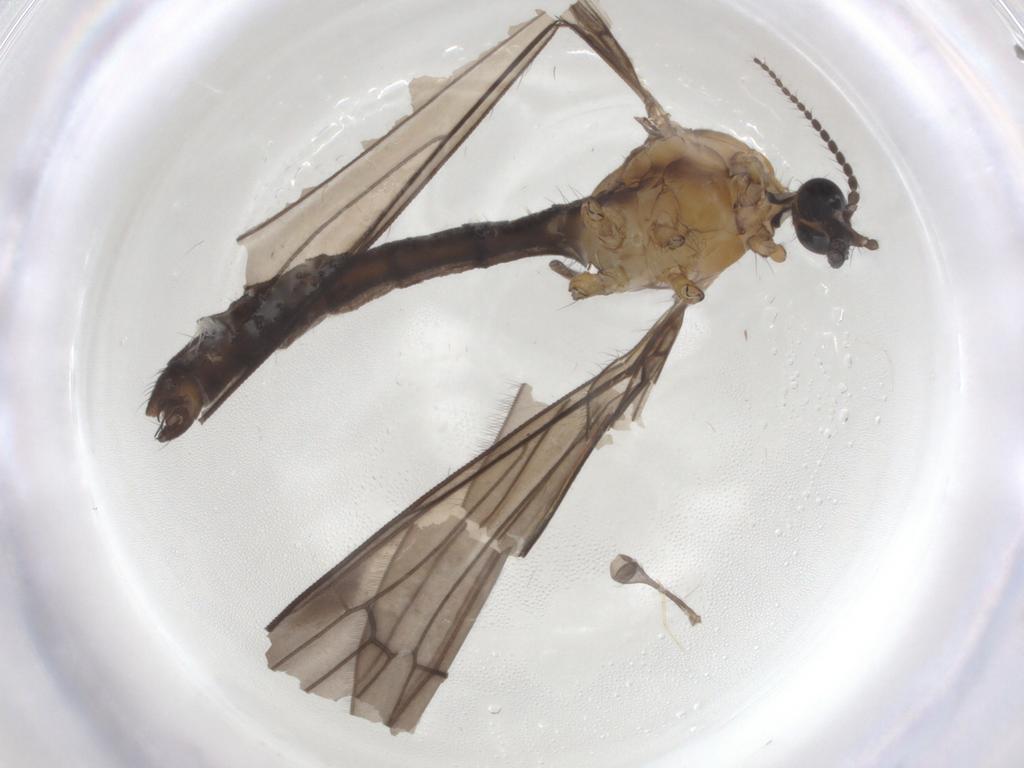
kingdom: Animalia
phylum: Arthropoda
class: Insecta
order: Diptera
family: Limoniidae
